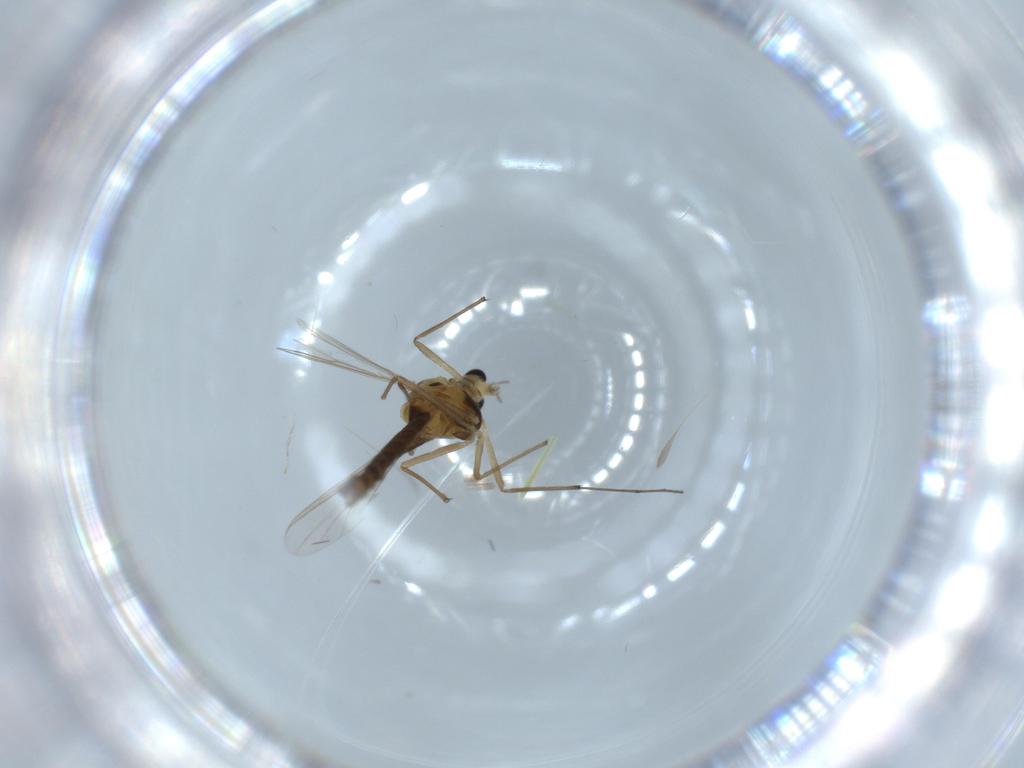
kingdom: Animalia
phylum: Arthropoda
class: Insecta
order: Diptera
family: Chironomidae
